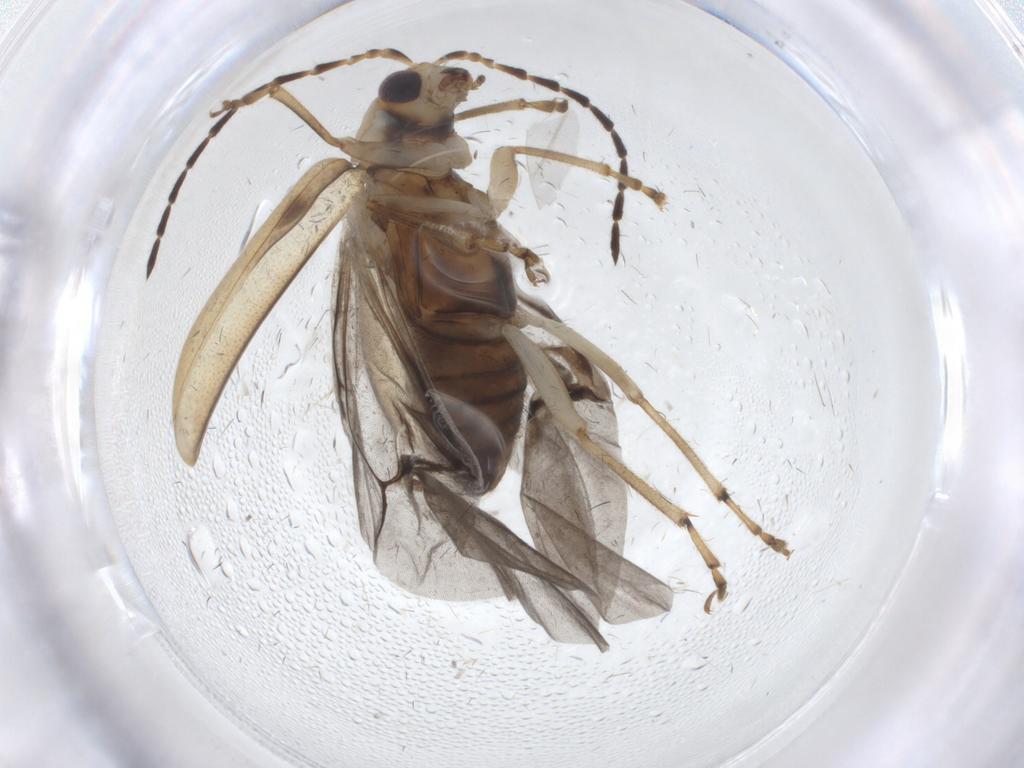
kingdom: Animalia
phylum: Arthropoda
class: Insecta
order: Coleoptera
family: Chrysomelidae
